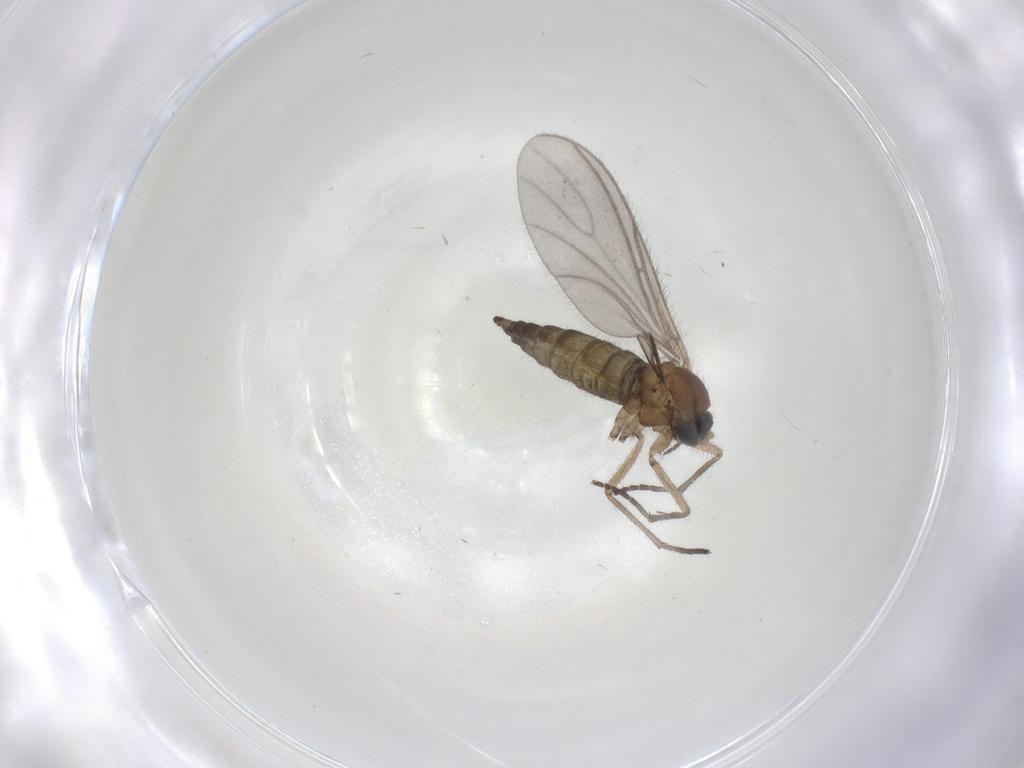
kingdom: Animalia
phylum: Arthropoda
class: Insecta
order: Diptera
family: Sciaridae
